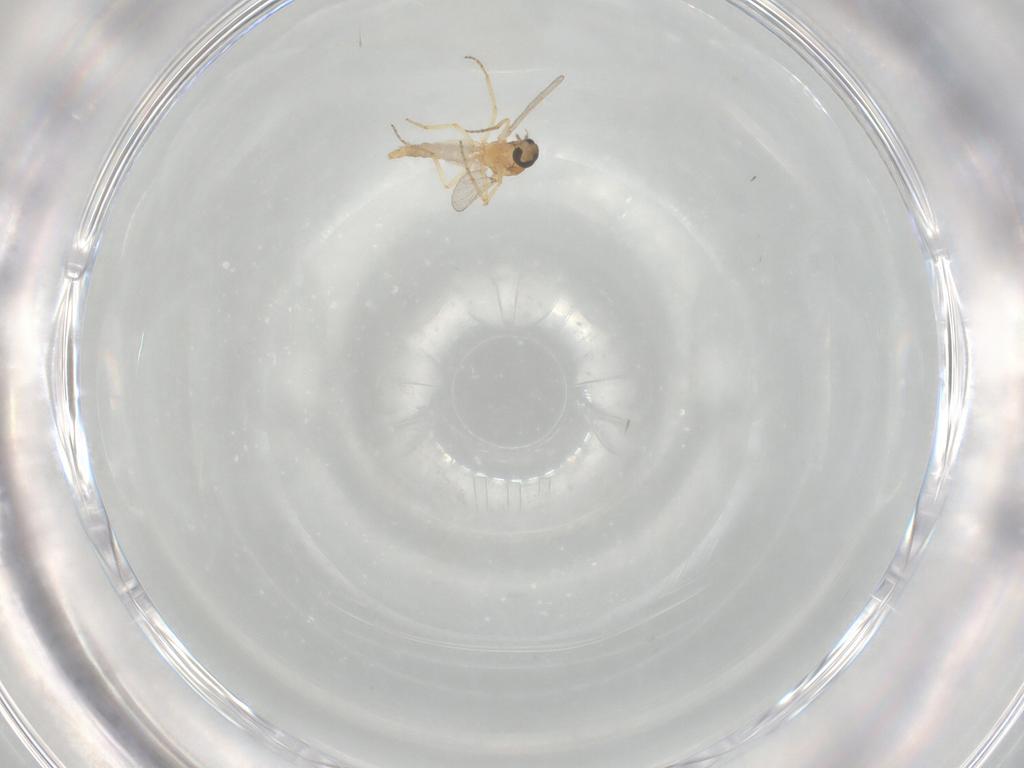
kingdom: Animalia
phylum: Arthropoda
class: Insecta
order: Diptera
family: Ceratopogonidae
